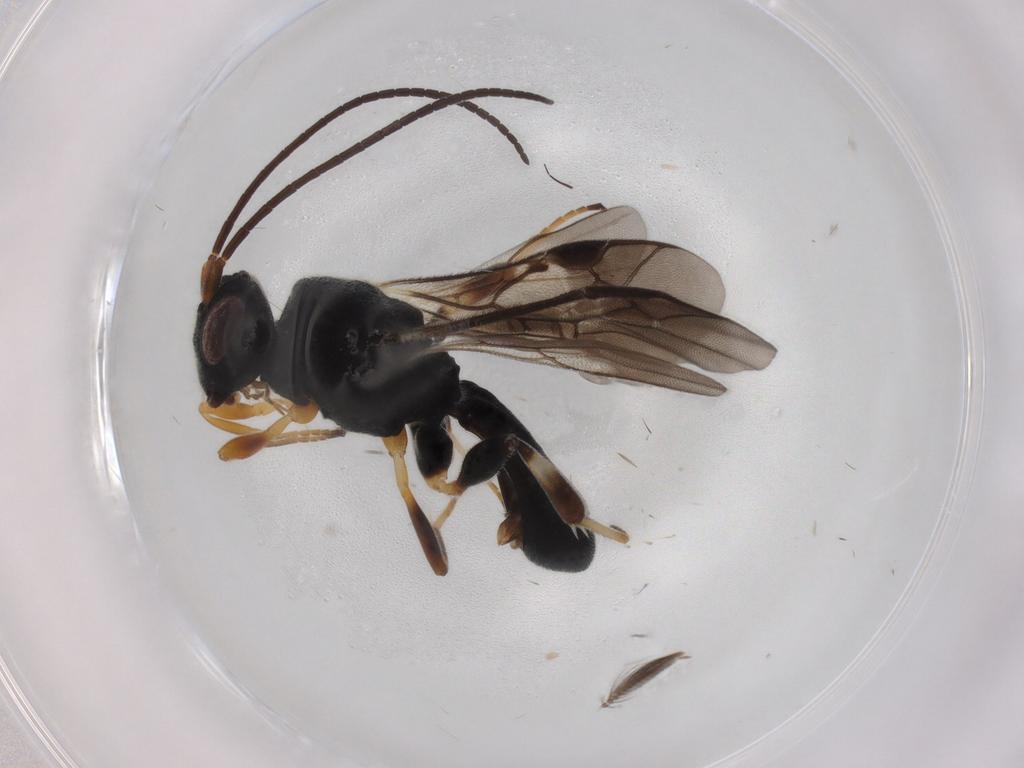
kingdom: Animalia
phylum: Arthropoda
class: Insecta
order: Hymenoptera
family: Braconidae
